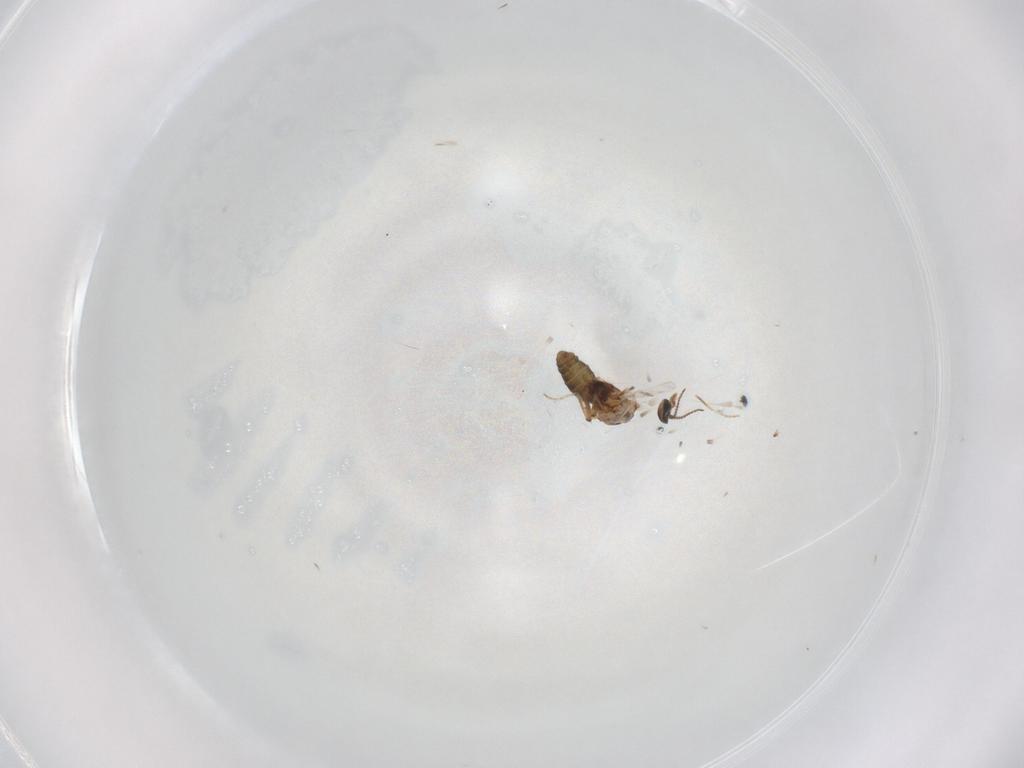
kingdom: Animalia
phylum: Arthropoda
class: Insecta
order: Diptera
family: Ceratopogonidae
